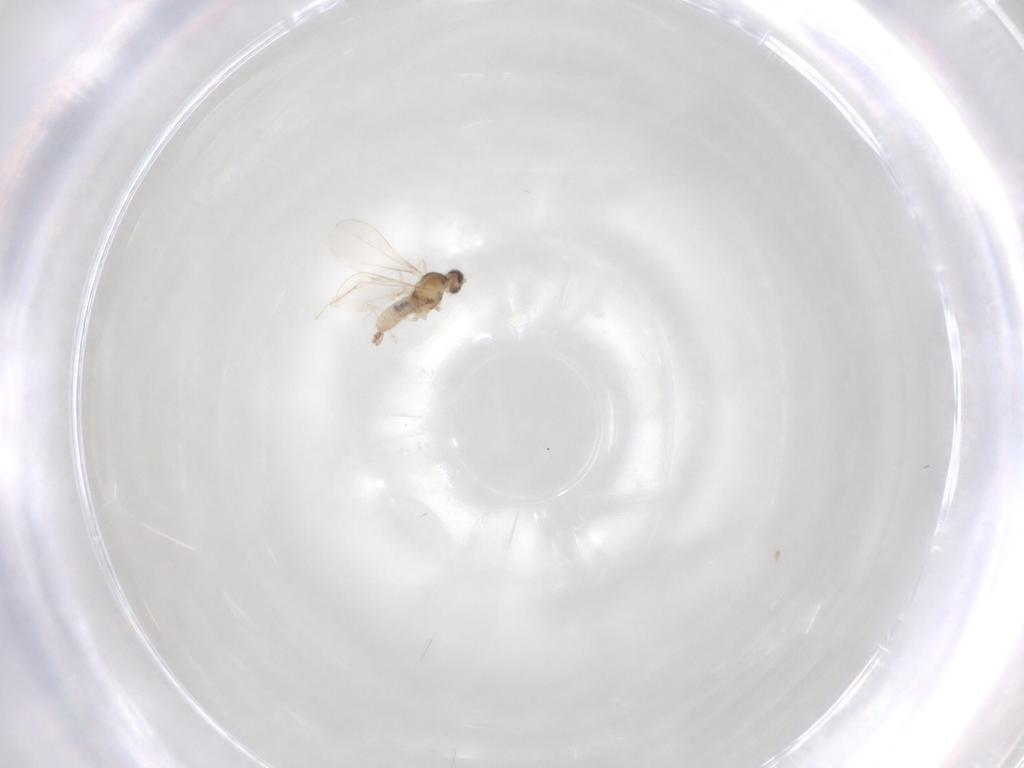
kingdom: Animalia
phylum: Arthropoda
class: Insecta
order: Diptera
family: Cecidomyiidae
